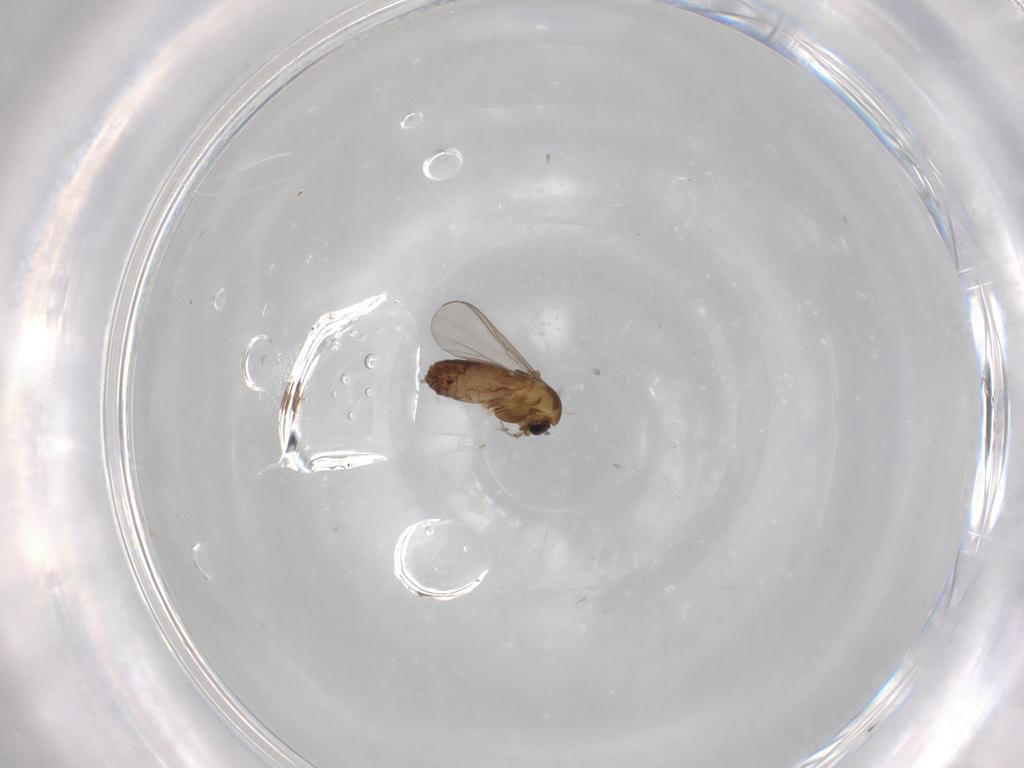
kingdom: Animalia
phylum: Arthropoda
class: Insecta
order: Diptera
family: Chironomidae
